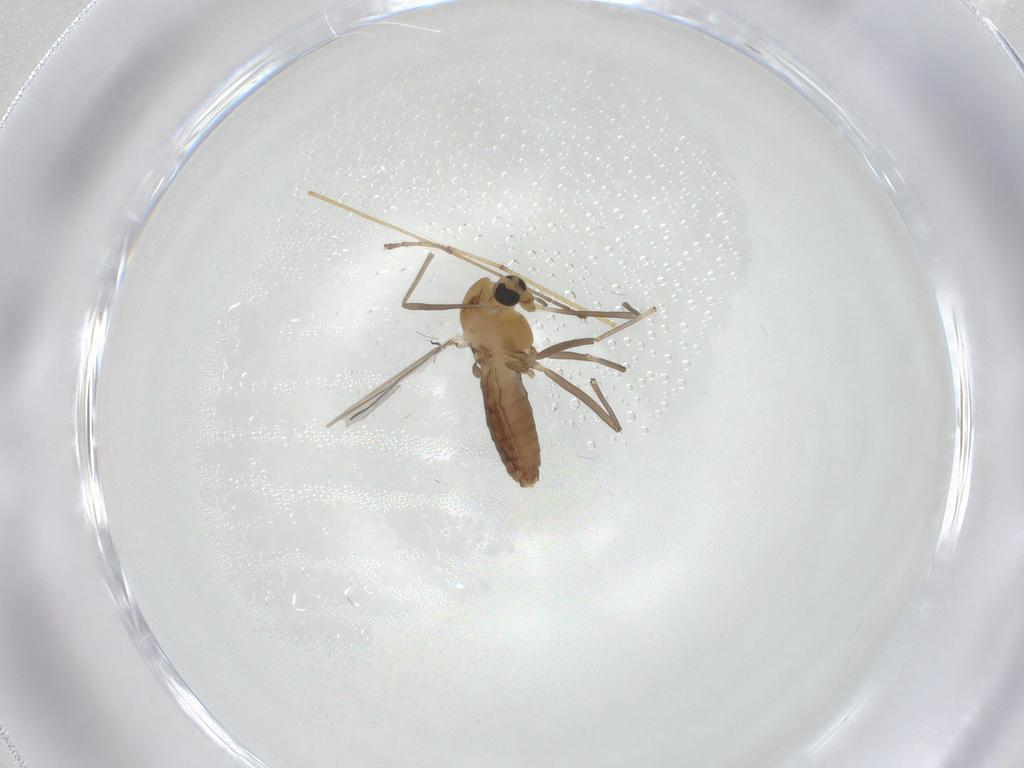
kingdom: Animalia
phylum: Arthropoda
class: Insecta
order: Diptera
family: Chironomidae
